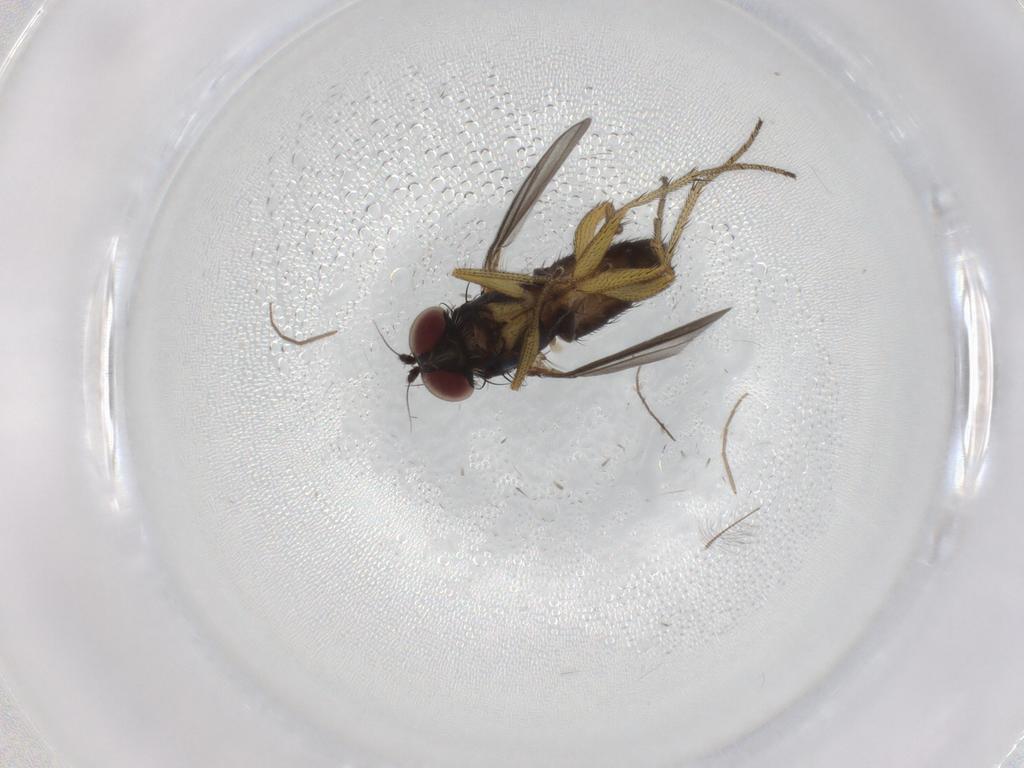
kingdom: Animalia
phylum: Arthropoda
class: Insecta
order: Diptera
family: Dolichopodidae
